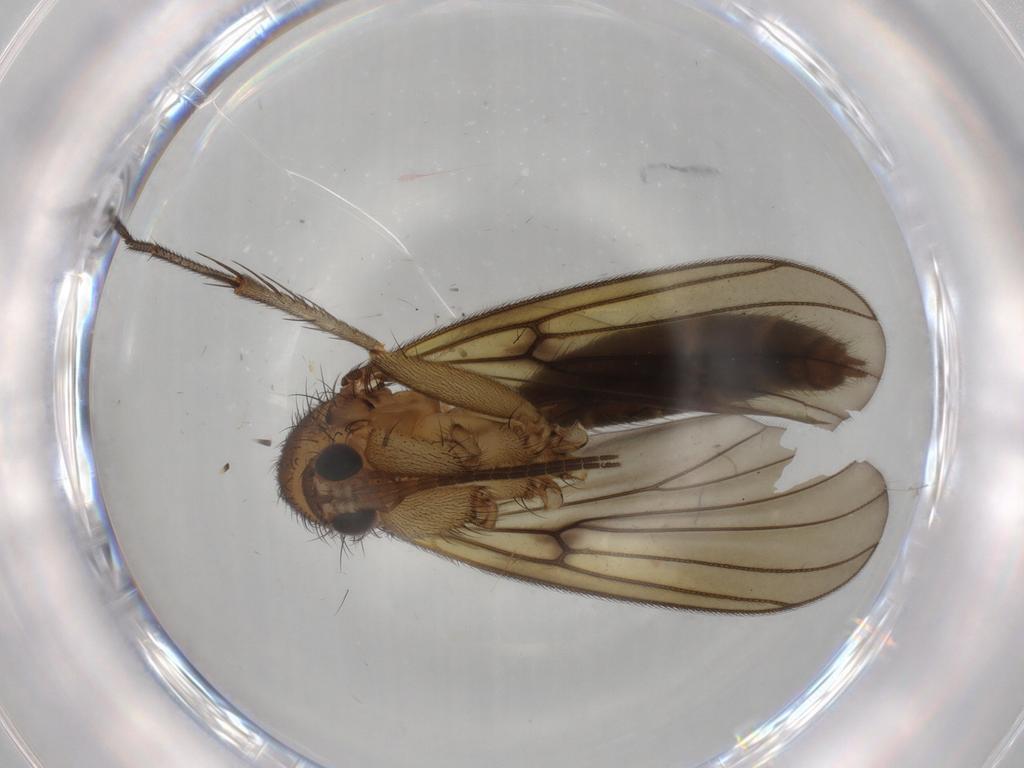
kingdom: Animalia
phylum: Arthropoda
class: Insecta
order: Diptera
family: Mycetophilidae
